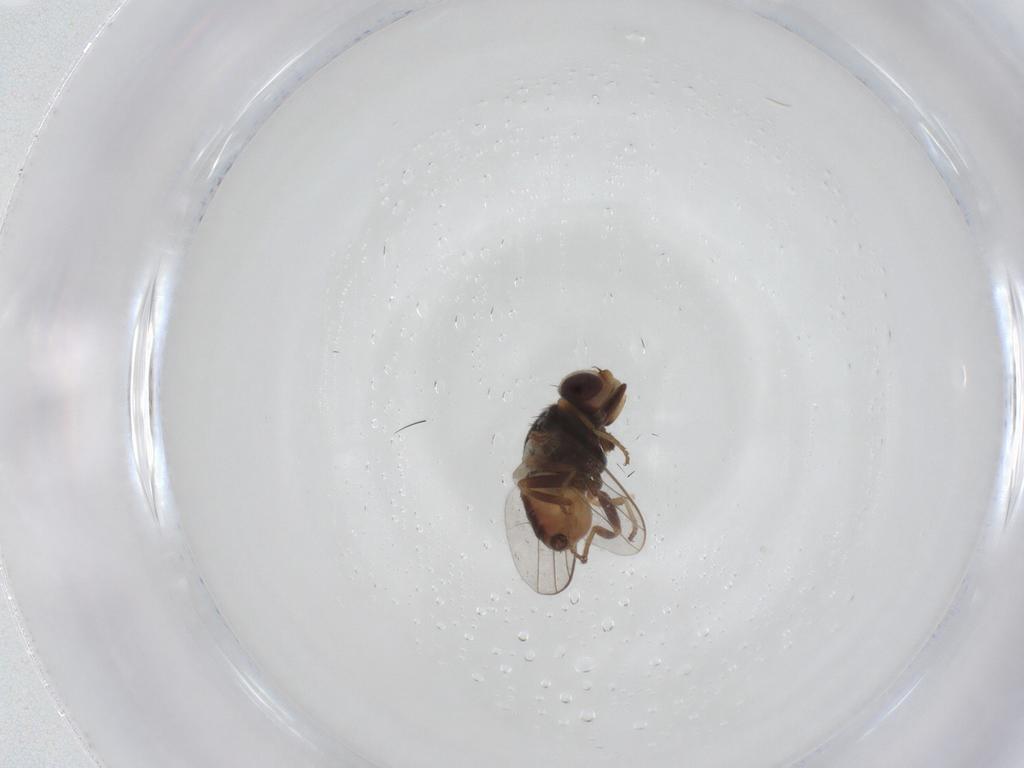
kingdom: Animalia
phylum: Arthropoda
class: Insecta
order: Diptera
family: Chloropidae
